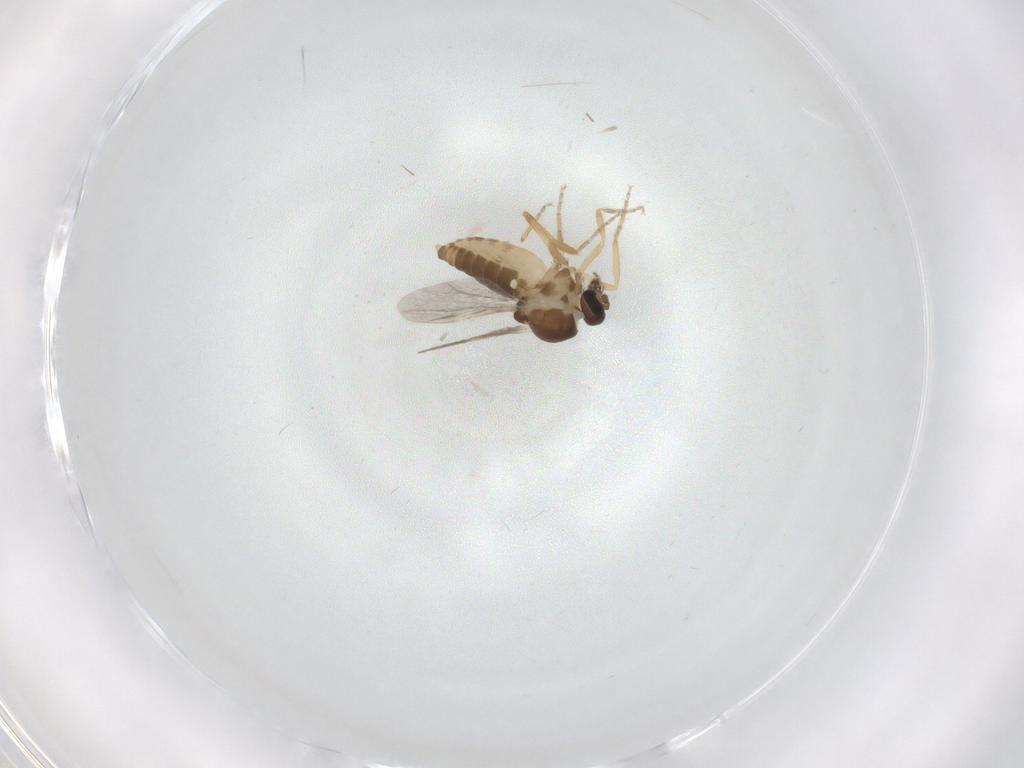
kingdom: Animalia
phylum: Arthropoda
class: Insecta
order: Diptera
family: Ceratopogonidae
